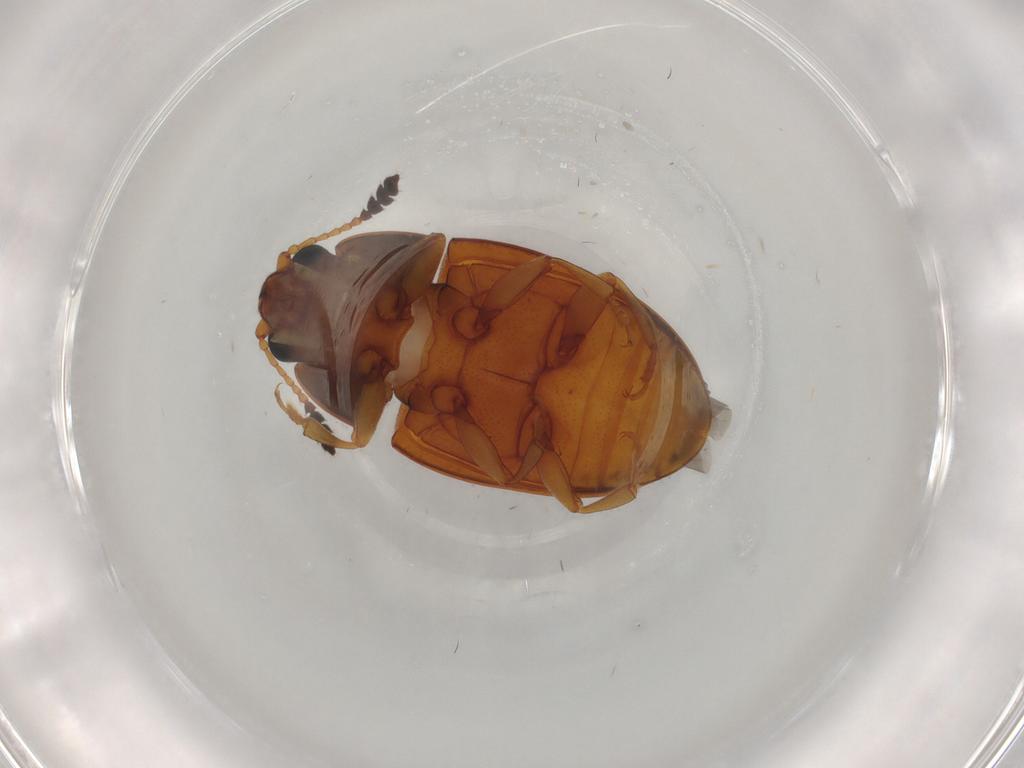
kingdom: Animalia
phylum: Arthropoda
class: Insecta
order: Coleoptera
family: Erotylidae
